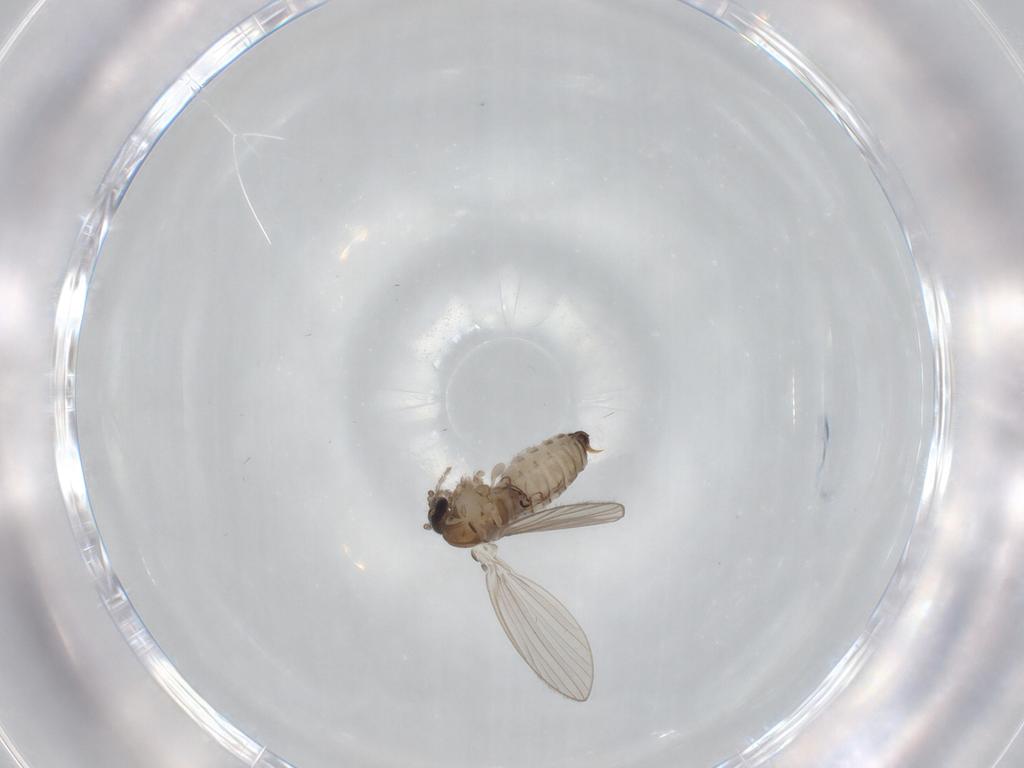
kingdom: Animalia
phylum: Arthropoda
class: Insecta
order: Diptera
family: Psychodidae
